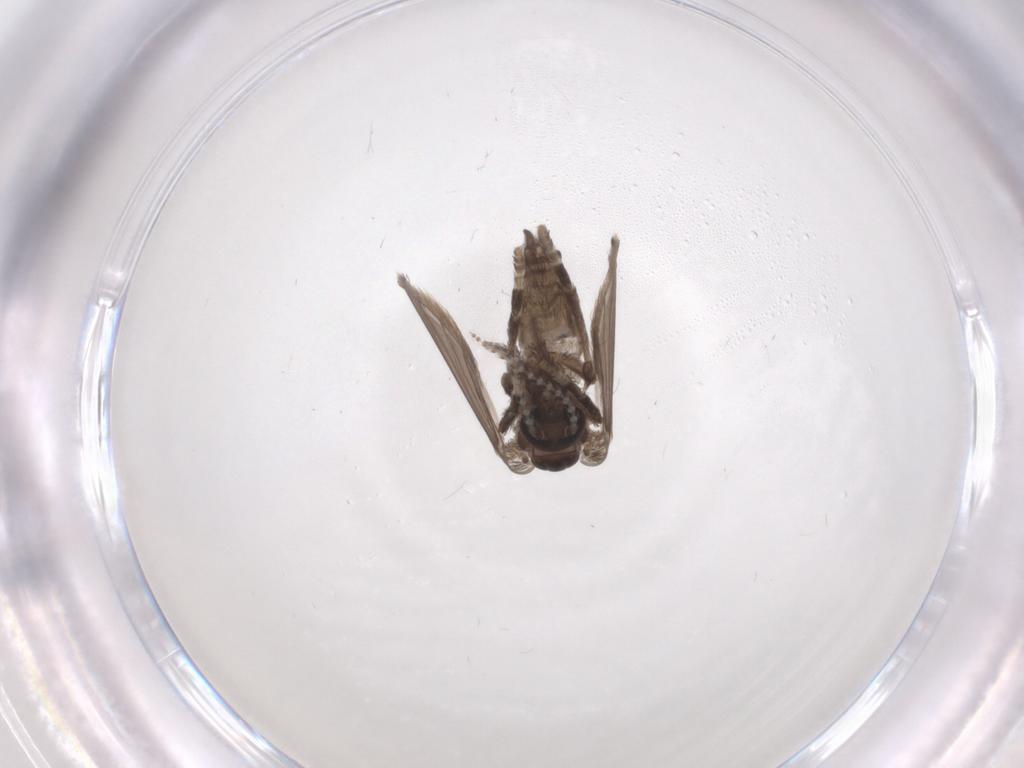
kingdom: Animalia
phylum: Arthropoda
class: Insecta
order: Diptera
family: Psychodidae
